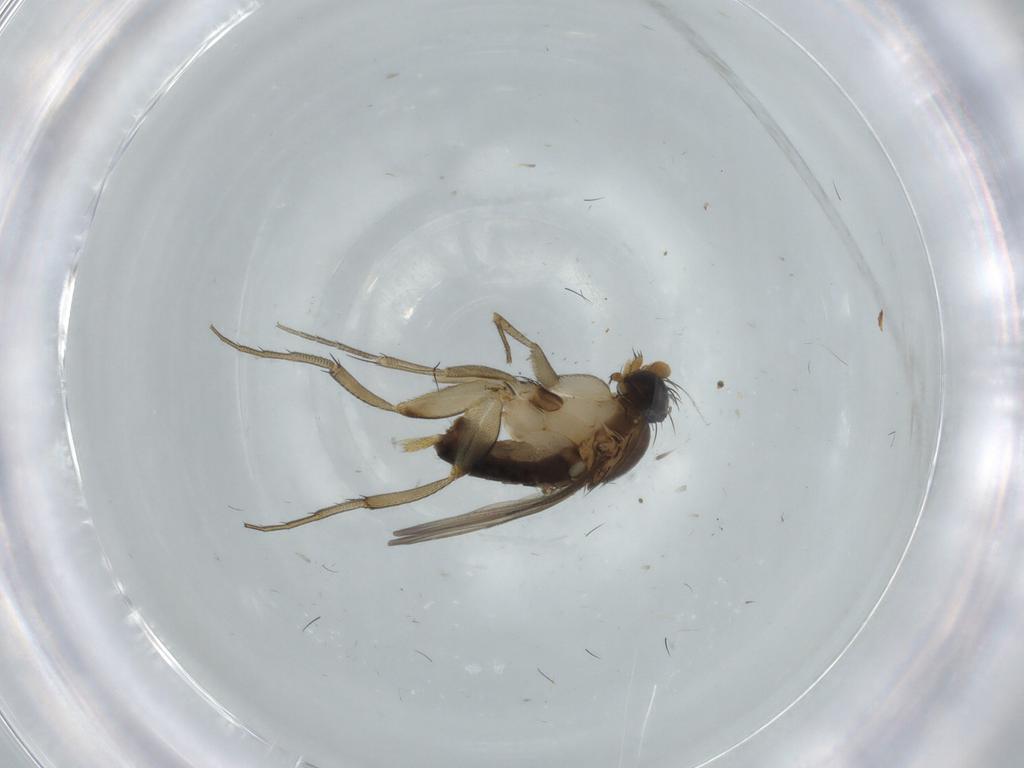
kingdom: Animalia
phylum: Arthropoda
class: Insecta
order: Diptera
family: Phoridae
